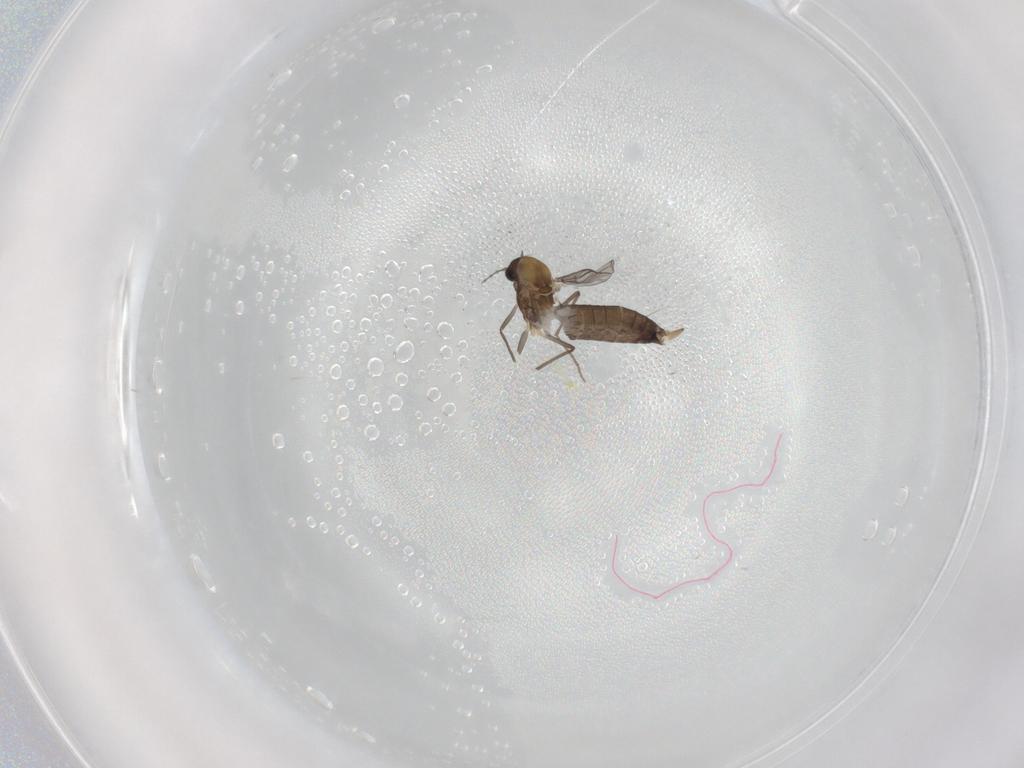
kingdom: Animalia
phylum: Arthropoda
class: Insecta
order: Diptera
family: Chironomidae
